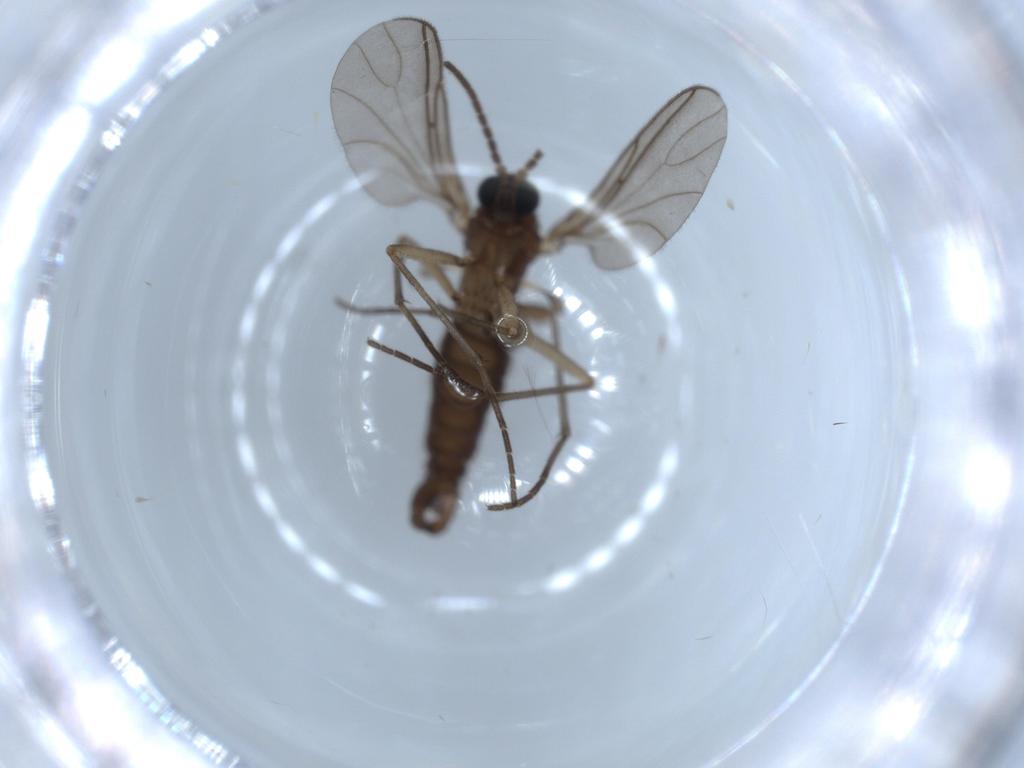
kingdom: Animalia
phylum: Arthropoda
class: Insecta
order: Diptera
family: Sciaridae
